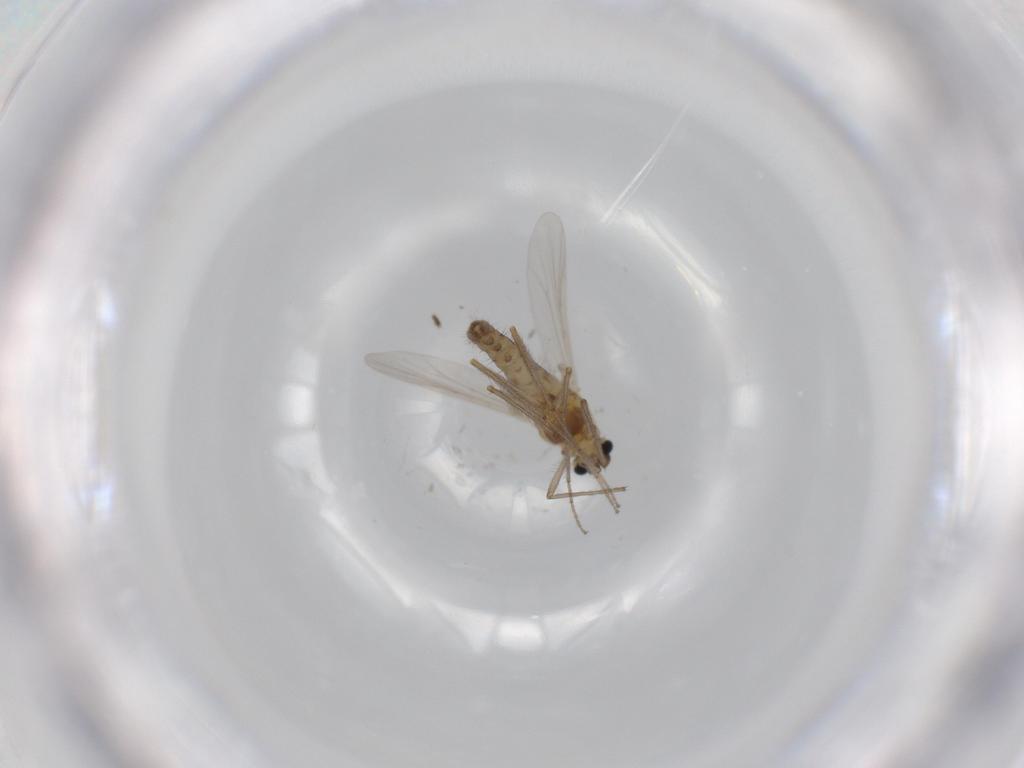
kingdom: Animalia
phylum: Arthropoda
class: Insecta
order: Diptera
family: Chironomidae
